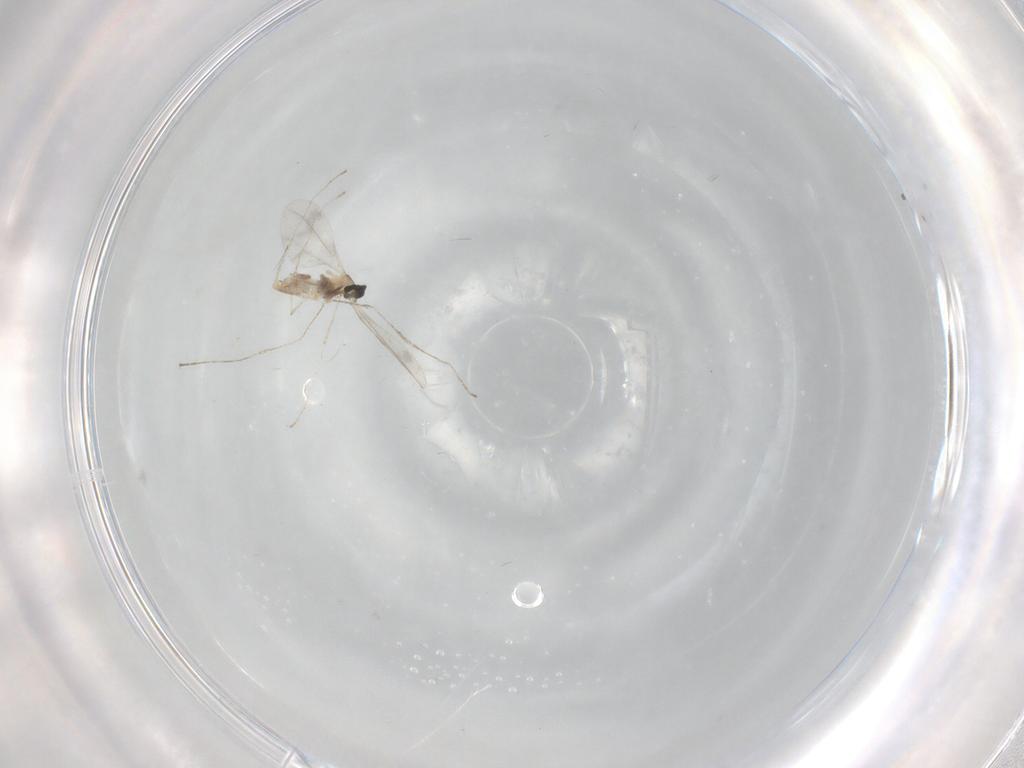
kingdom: Animalia
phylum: Arthropoda
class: Insecta
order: Diptera
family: Cecidomyiidae
